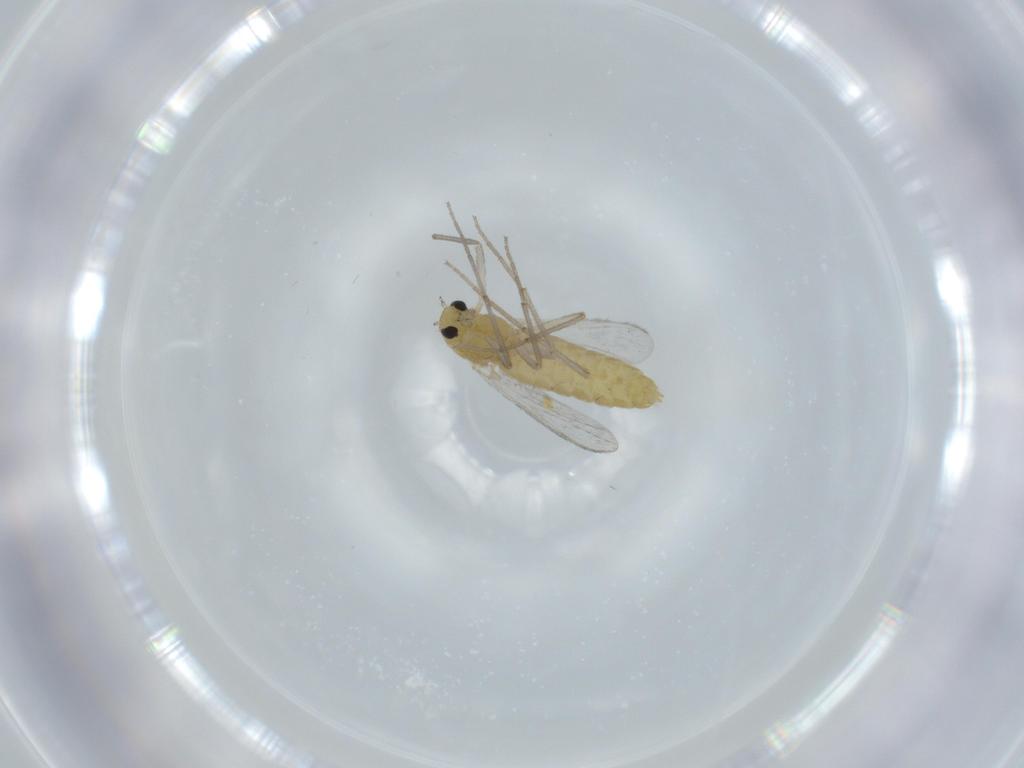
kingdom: Animalia
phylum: Arthropoda
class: Insecta
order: Diptera
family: Chironomidae
